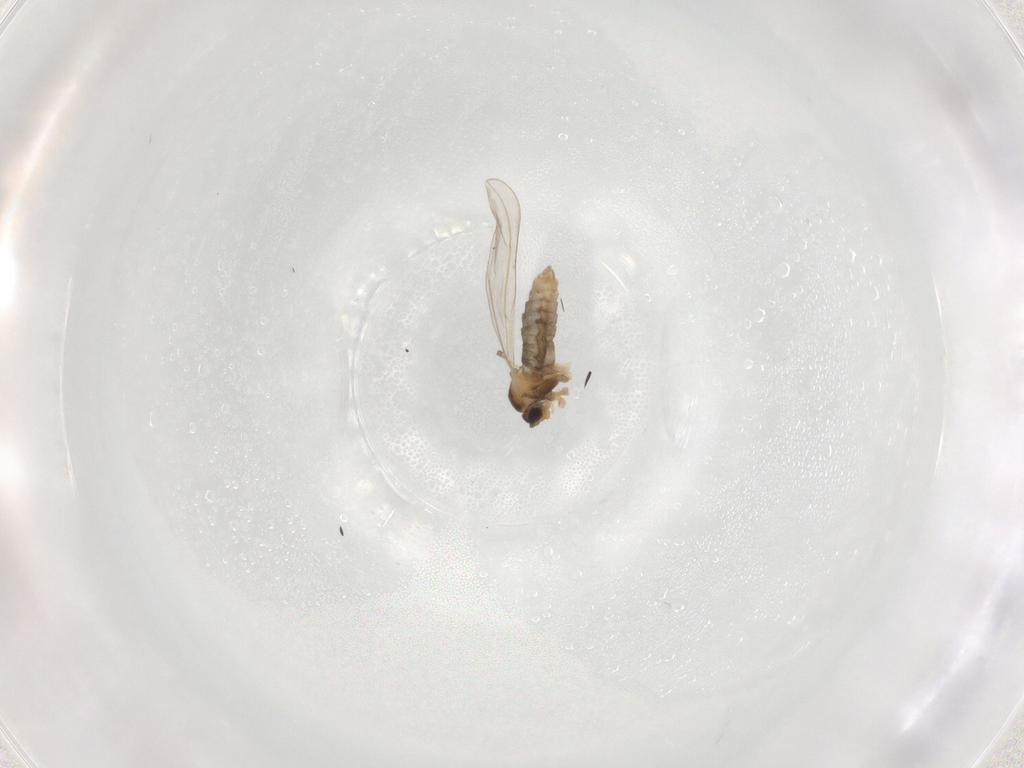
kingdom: Animalia
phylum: Arthropoda
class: Insecta
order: Diptera
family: Cecidomyiidae
